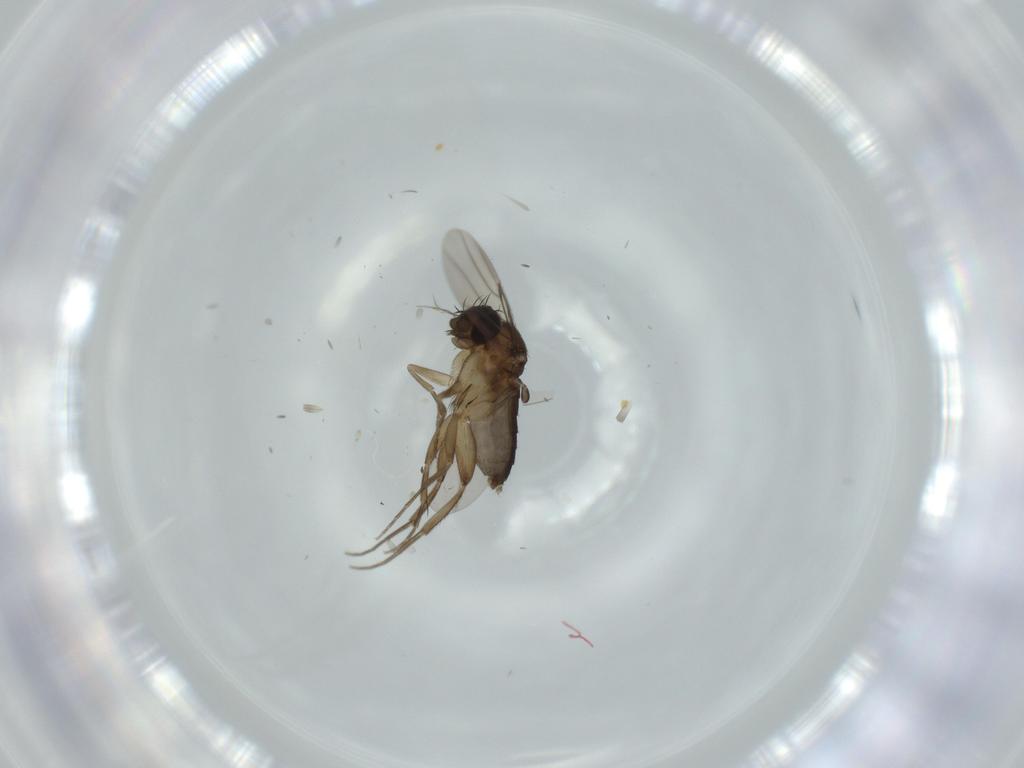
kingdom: Animalia
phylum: Arthropoda
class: Insecta
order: Diptera
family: Phoridae
